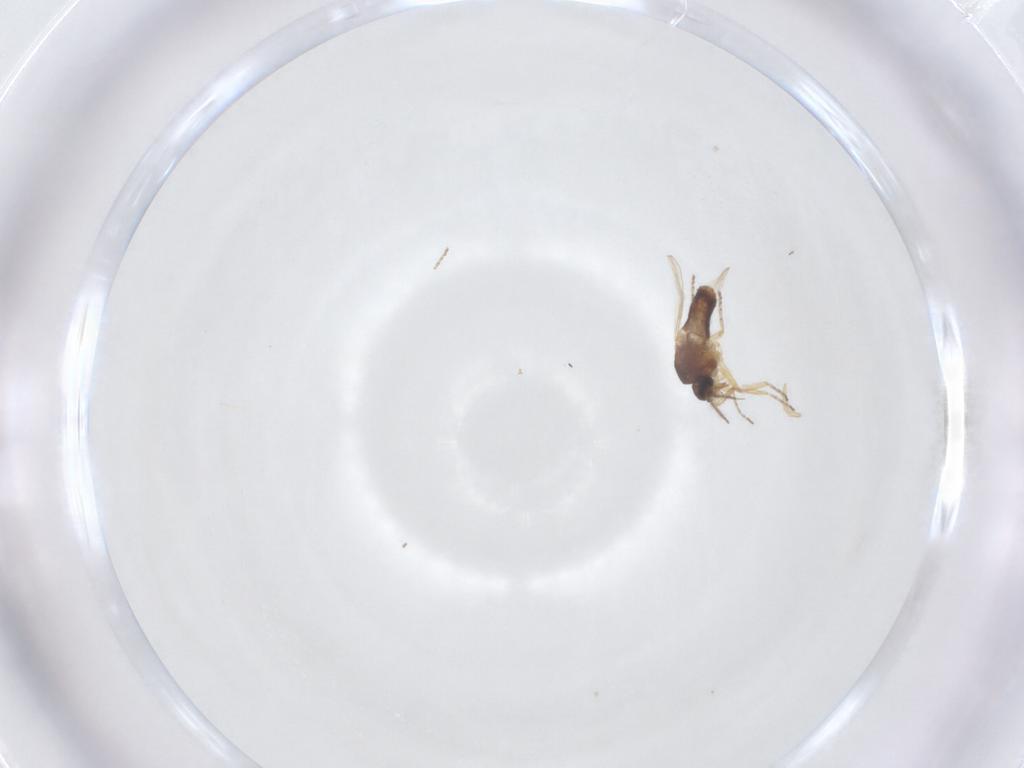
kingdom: Animalia
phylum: Arthropoda
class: Insecta
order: Diptera
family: Ceratopogonidae
